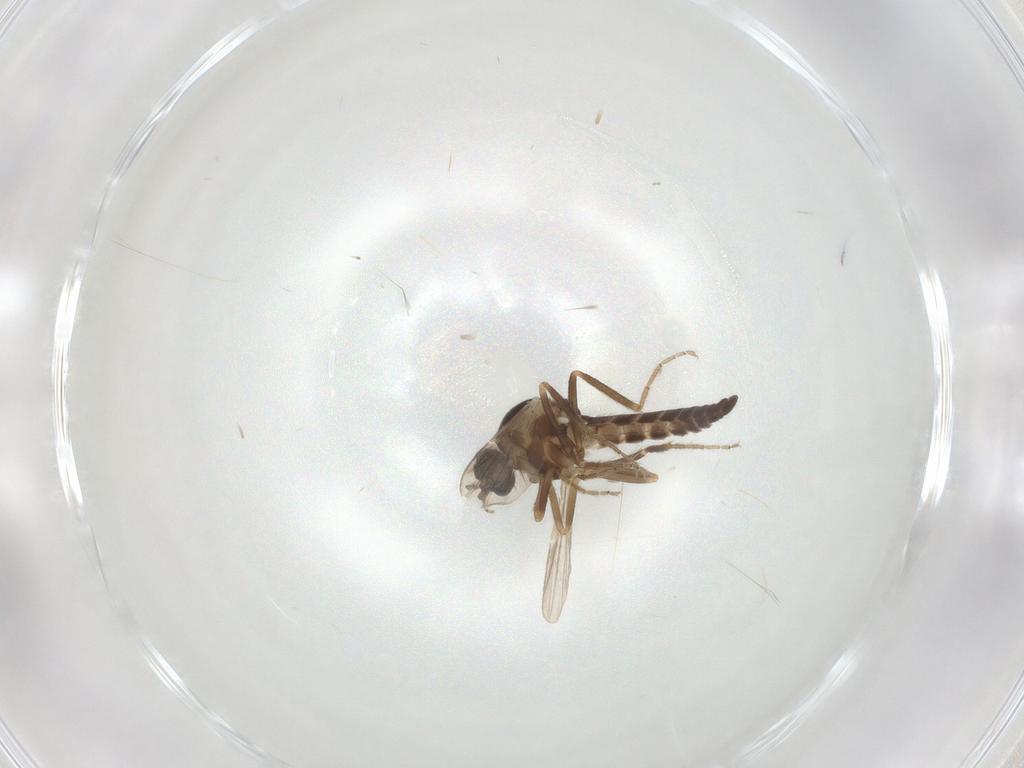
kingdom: Animalia
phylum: Arthropoda
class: Insecta
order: Diptera
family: Ceratopogonidae
